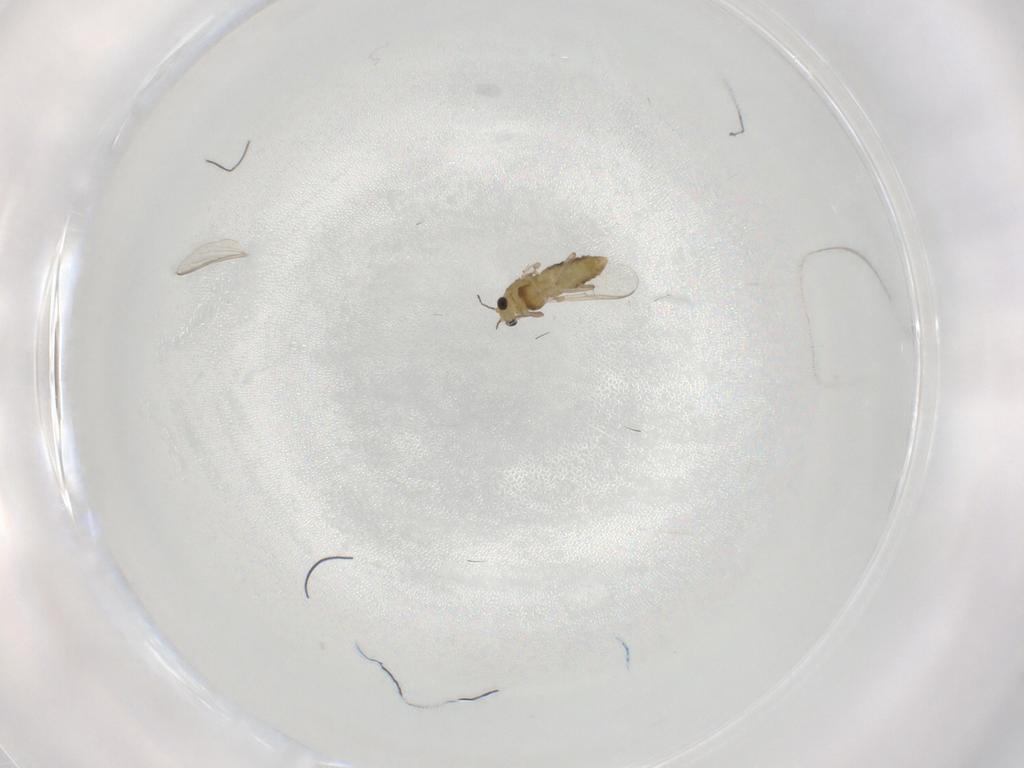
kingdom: Animalia
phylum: Arthropoda
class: Insecta
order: Diptera
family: Chironomidae
